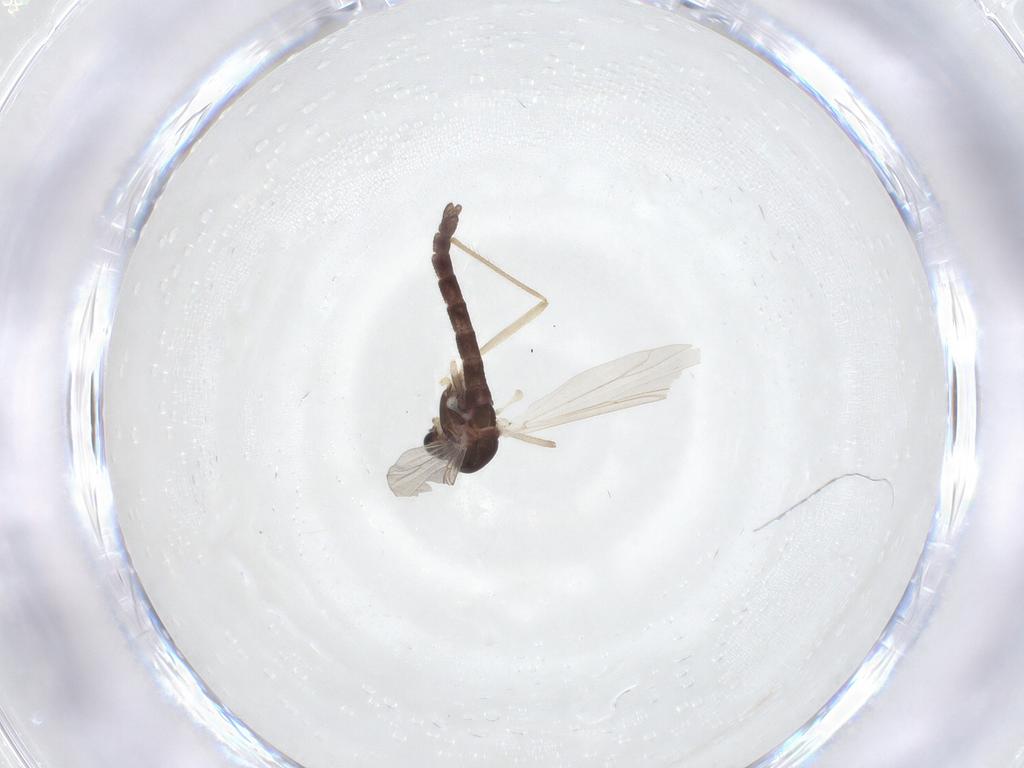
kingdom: Animalia
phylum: Arthropoda
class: Insecta
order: Diptera
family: Chironomidae
